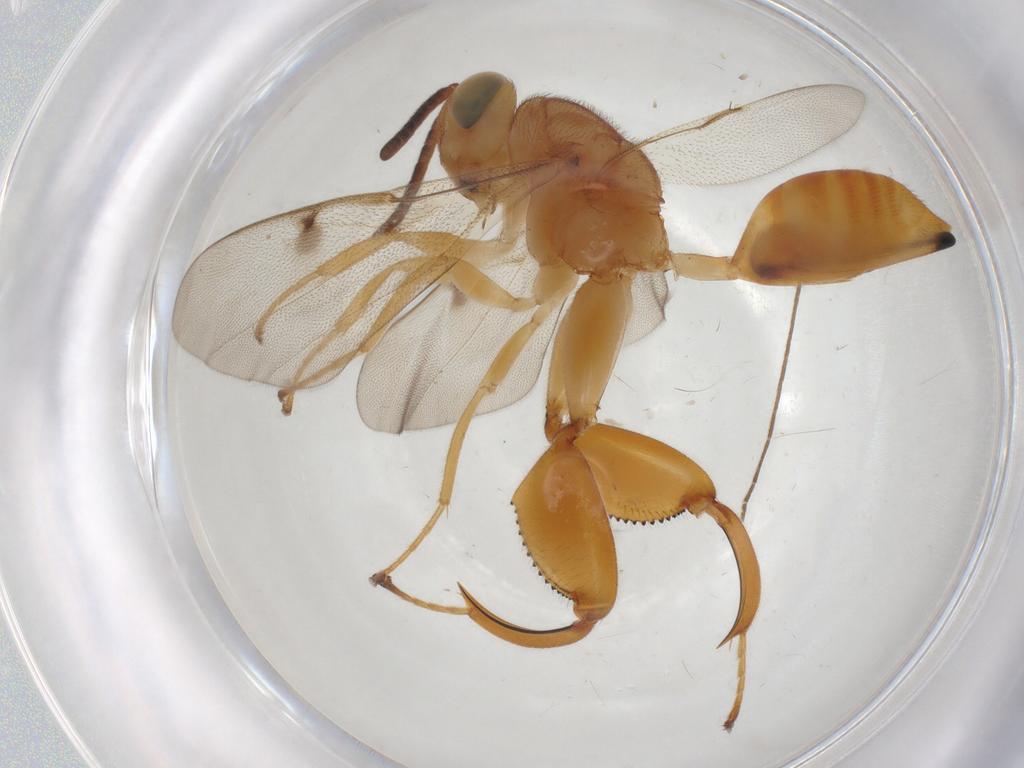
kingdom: Animalia
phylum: Arthropoda
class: Insecta
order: Hymenoptera
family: Chalcididae
